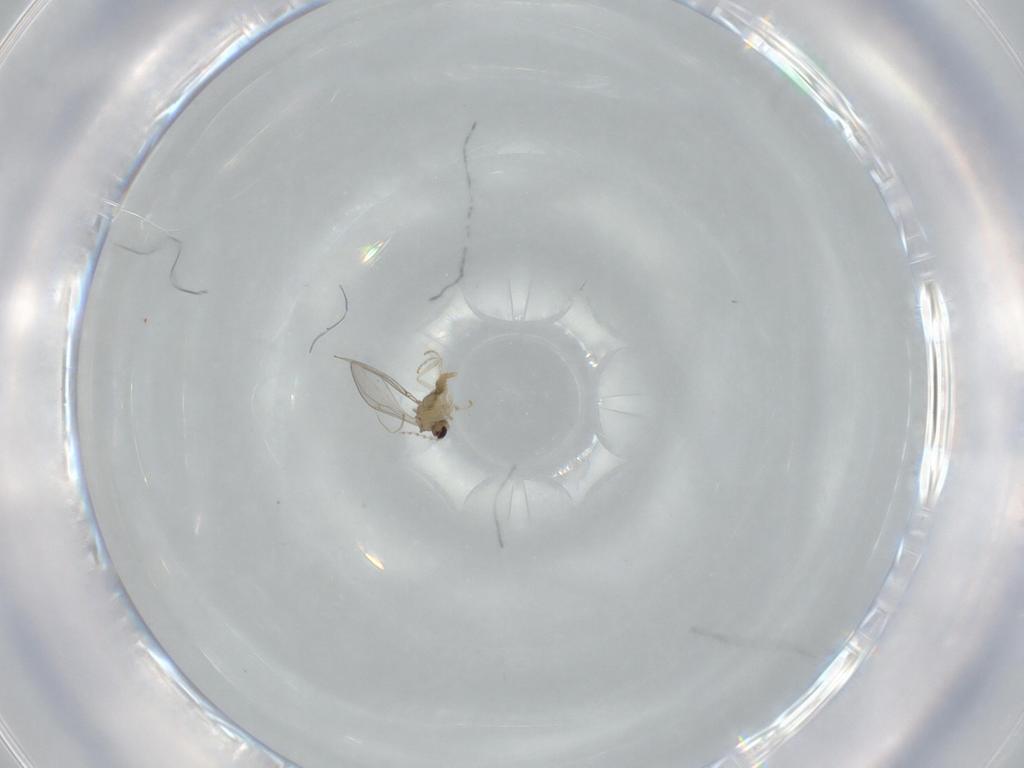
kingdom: Animalia
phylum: Arthropoda
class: Insecta
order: Diptera
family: Cecidomyiidae
